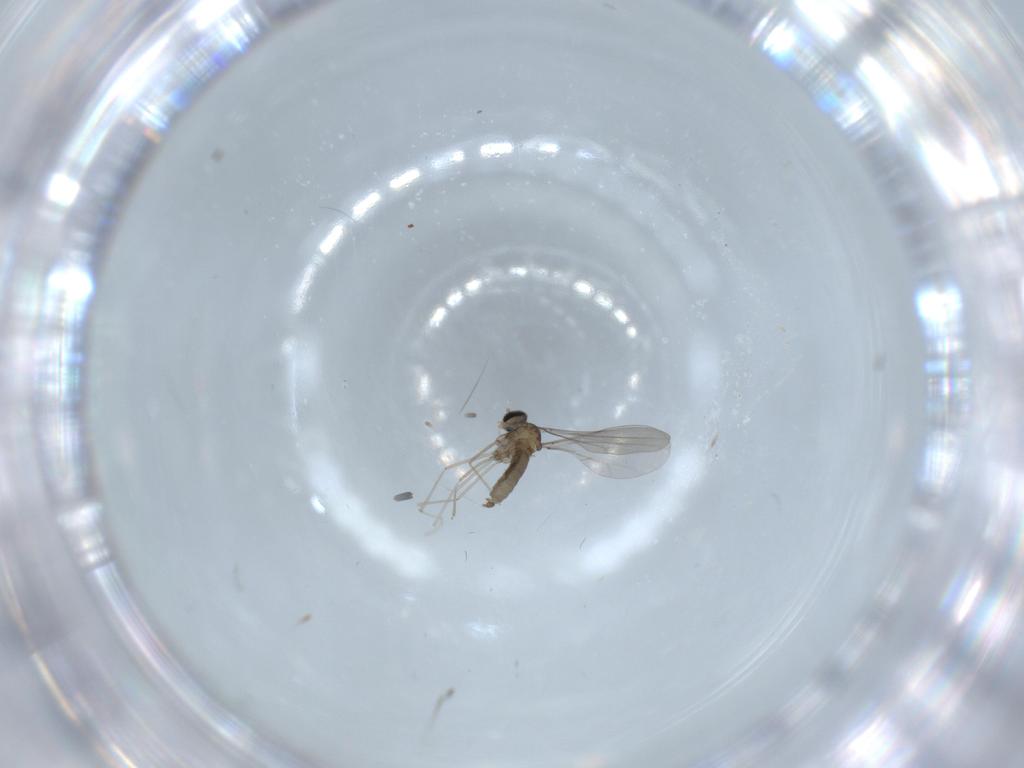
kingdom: Animalia
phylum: Arthropoda
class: Insecta
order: Diptera
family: Cecidomyiidae
